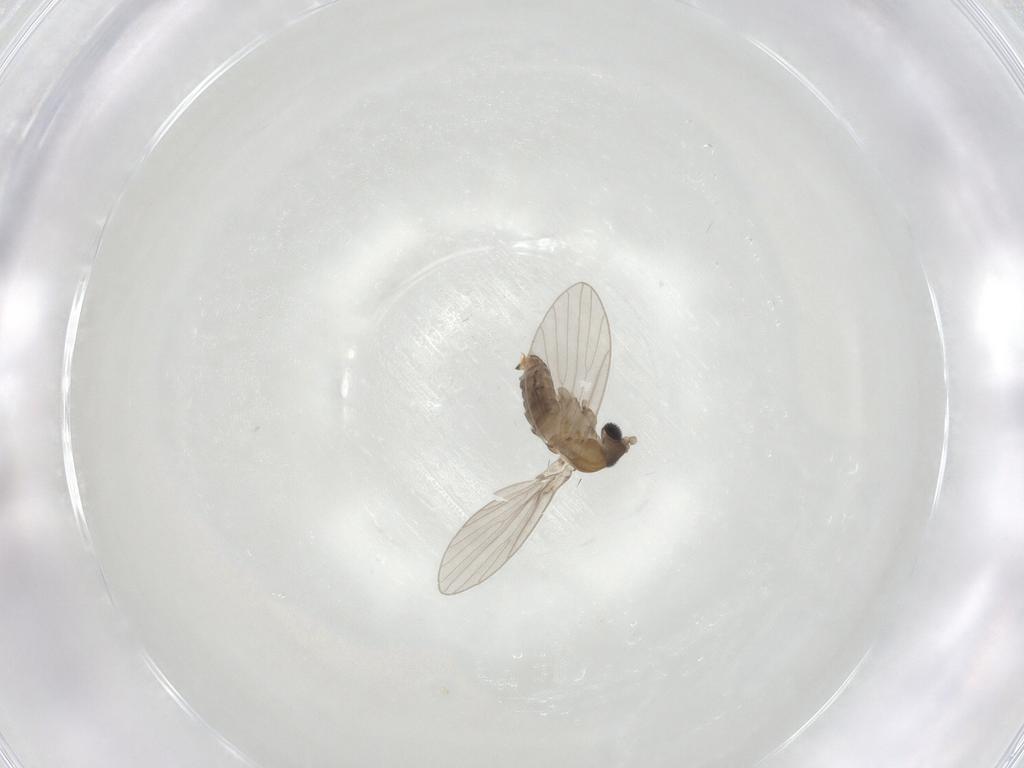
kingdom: Animalia
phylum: Arthropoda
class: Insecta
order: Diptera
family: Psychodidae
